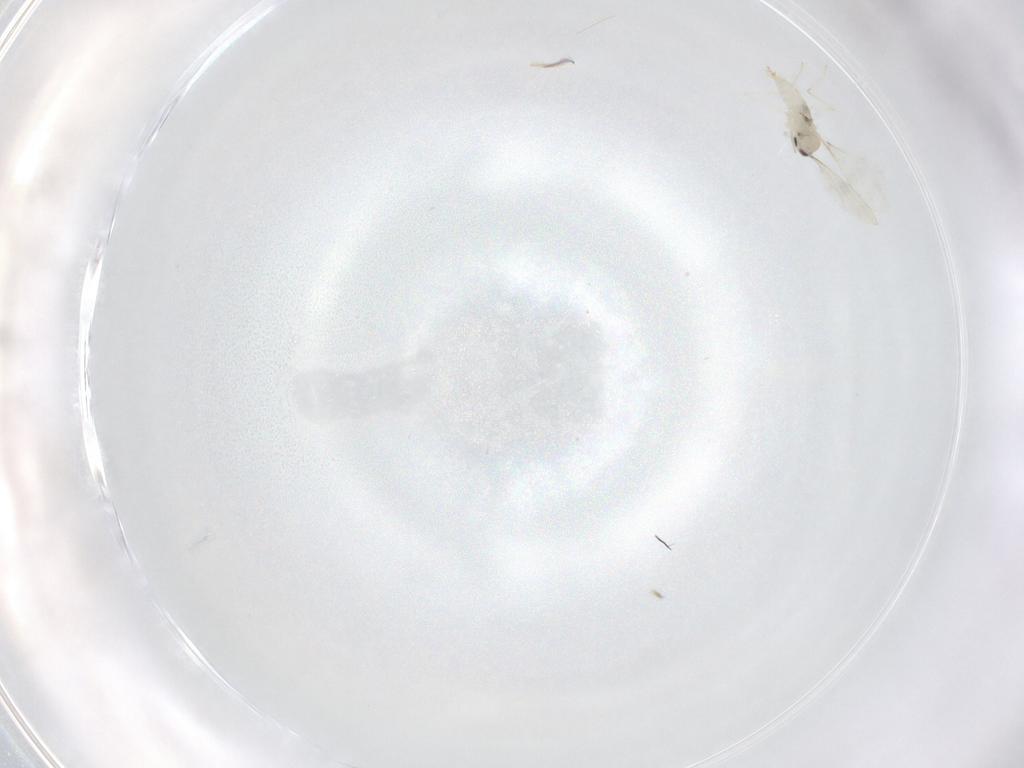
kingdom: Animalia
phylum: Arthropoda
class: Insecta
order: Diptera
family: Cecidomyiidae
